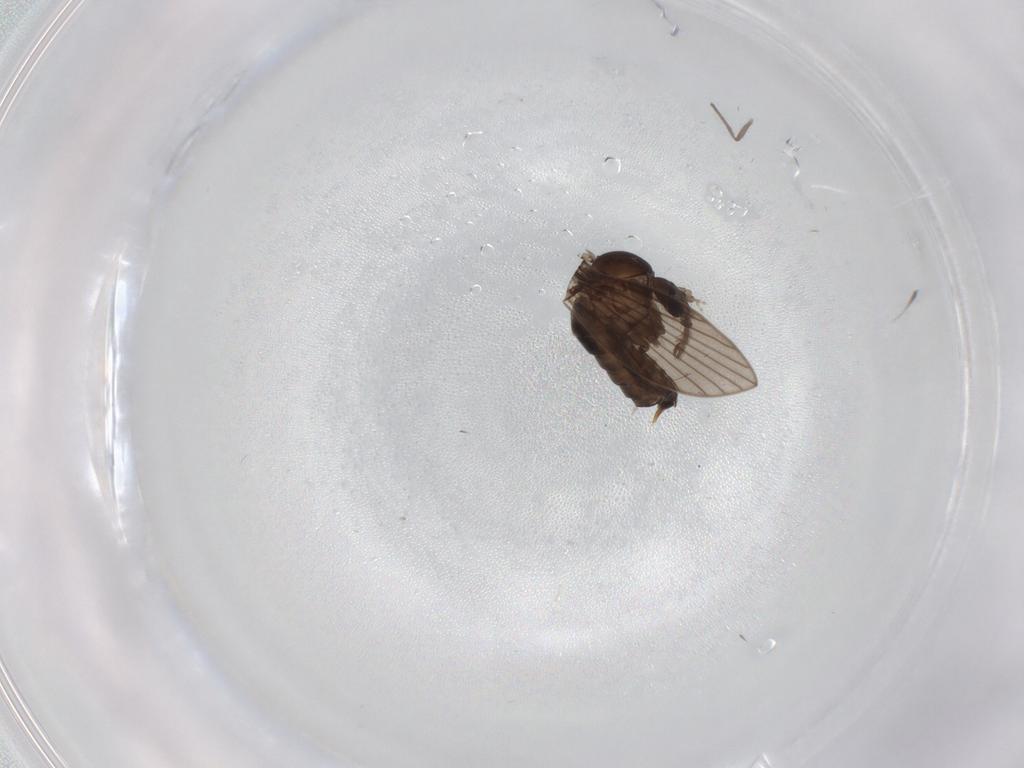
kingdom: Animalia
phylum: Arthropoda
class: Insecta
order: Diptera
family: Psychodidae
